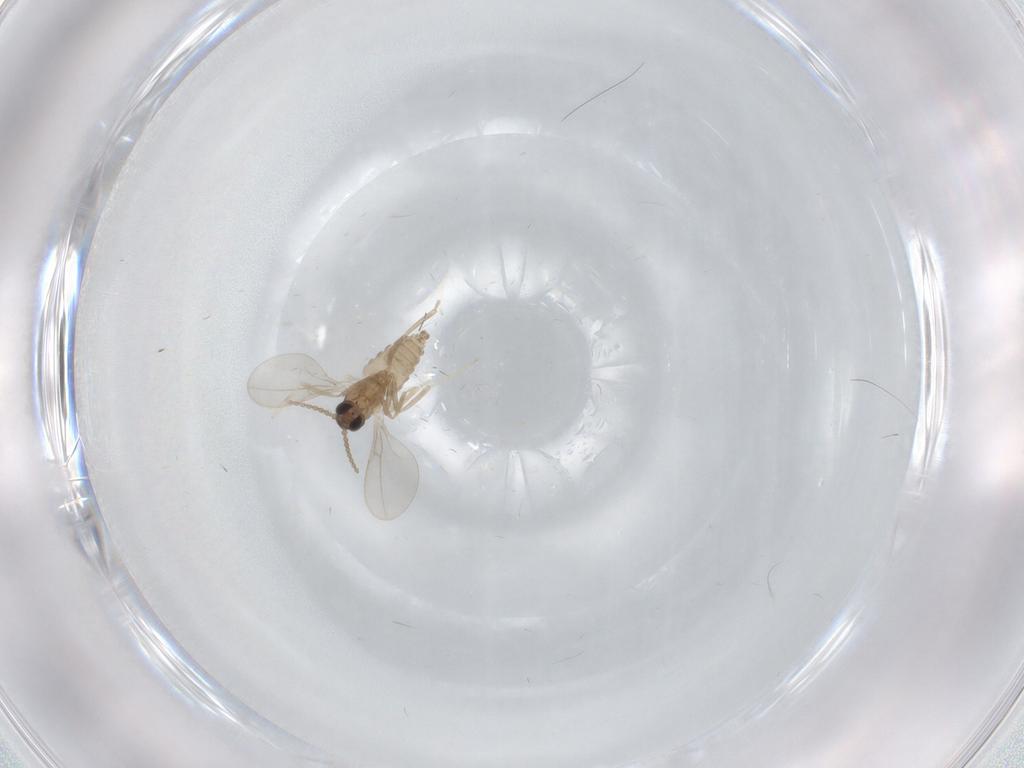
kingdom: Animalia
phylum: Arthropoda
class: Insecta
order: Diptera
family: Cecidomyiidae
